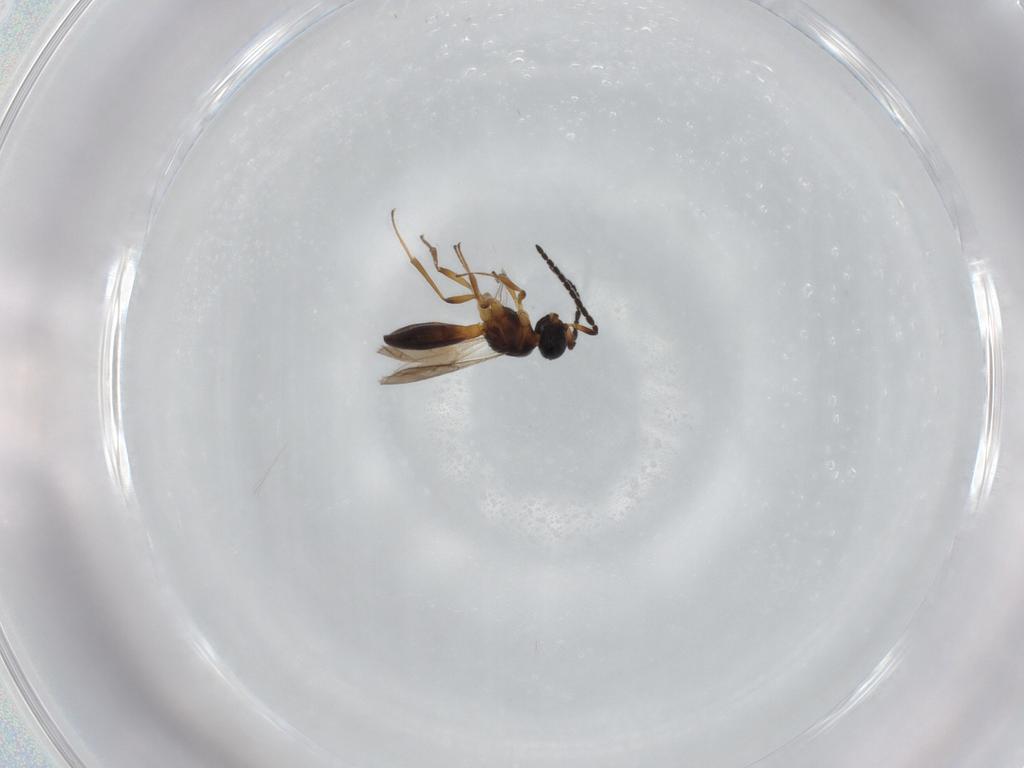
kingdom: Animalia
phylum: Arthropoda
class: Insecta
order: Hymenoptera
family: Scelionidae
